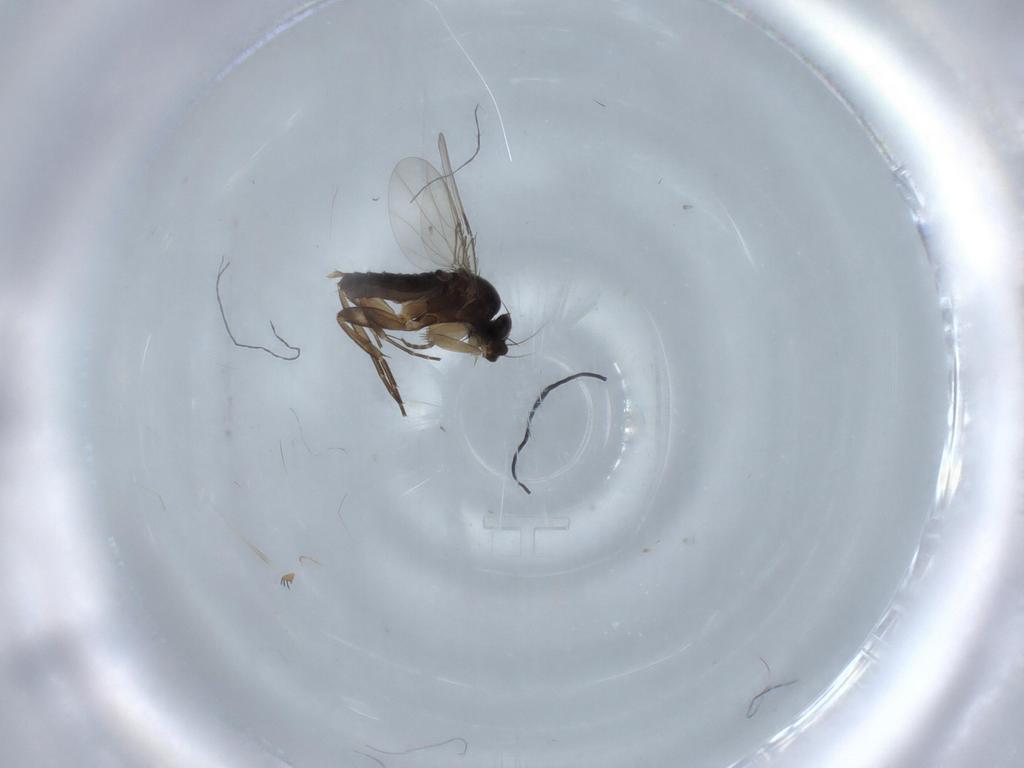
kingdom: Animalia
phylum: Arthropoda
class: Insecta
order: Diptera
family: Phoridae
